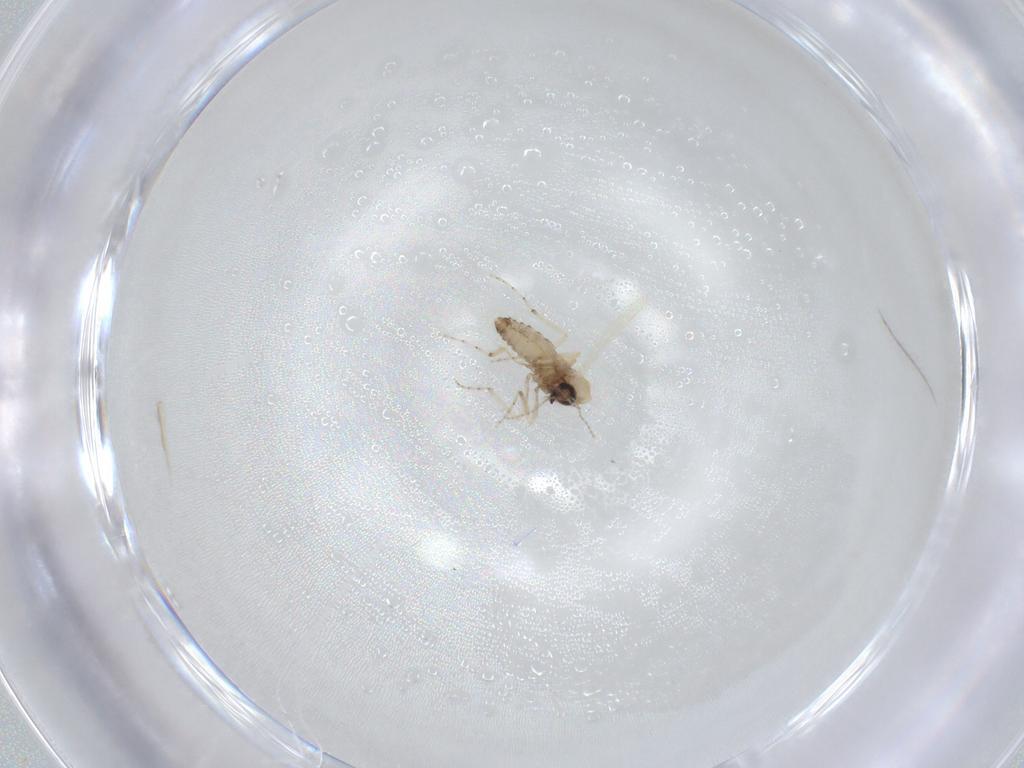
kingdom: Animalia
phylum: Arthropoda
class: Insecta
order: Diptera
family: Ceratopogonidae
